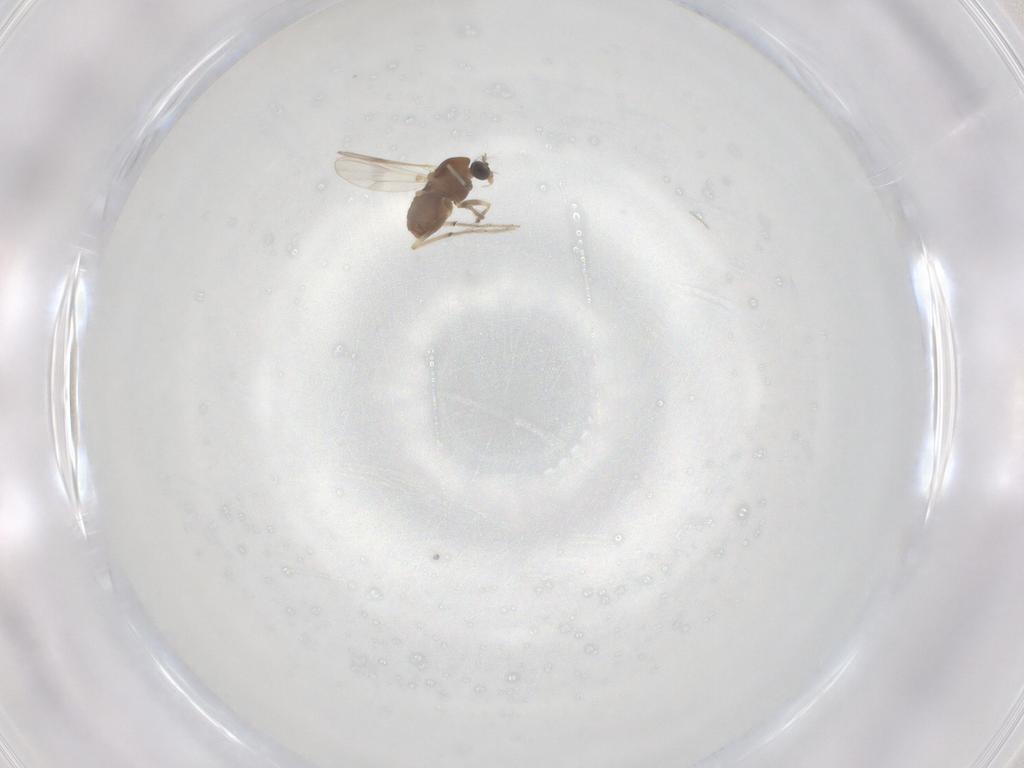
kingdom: Animalia
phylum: Arthropoda
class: Insecta
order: Diptera
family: Chironomidae
